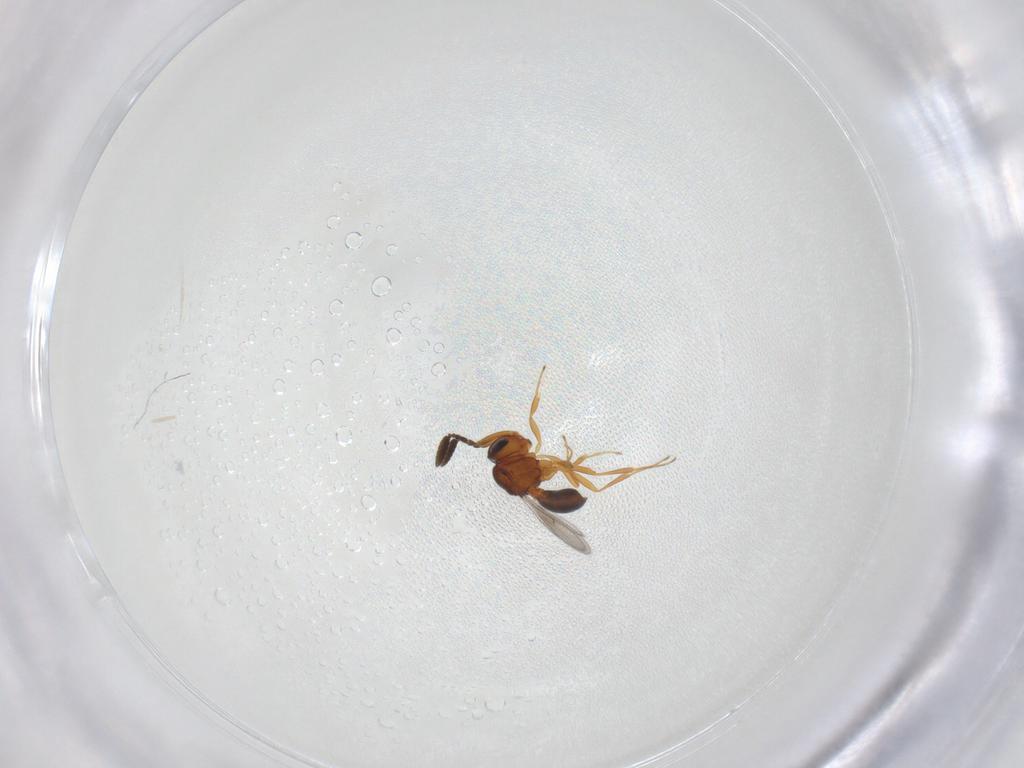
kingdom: Animalia
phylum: Arthropoda
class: Insecta
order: Hymenoptera
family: Scelionidae
